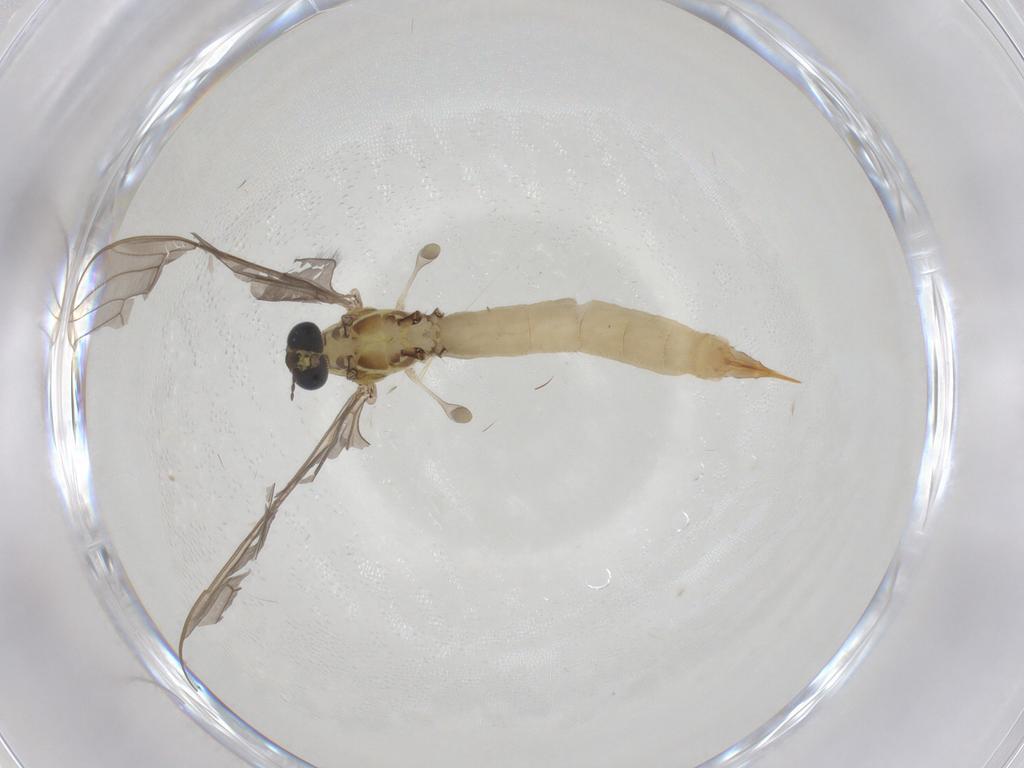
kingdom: Animalia
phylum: Arthropoda
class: Insecta
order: Diptera
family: Limoniidae
